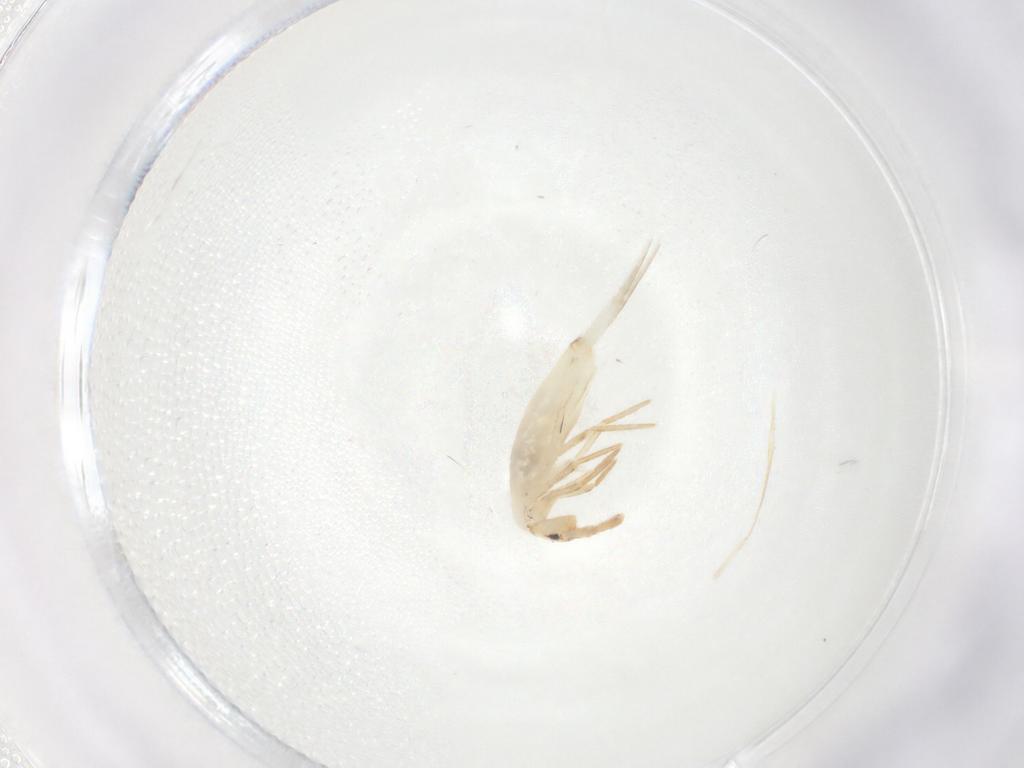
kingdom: Animalia
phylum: Arthropoda
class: Collembola
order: Entomobryomorpha
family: Entomobryidae
